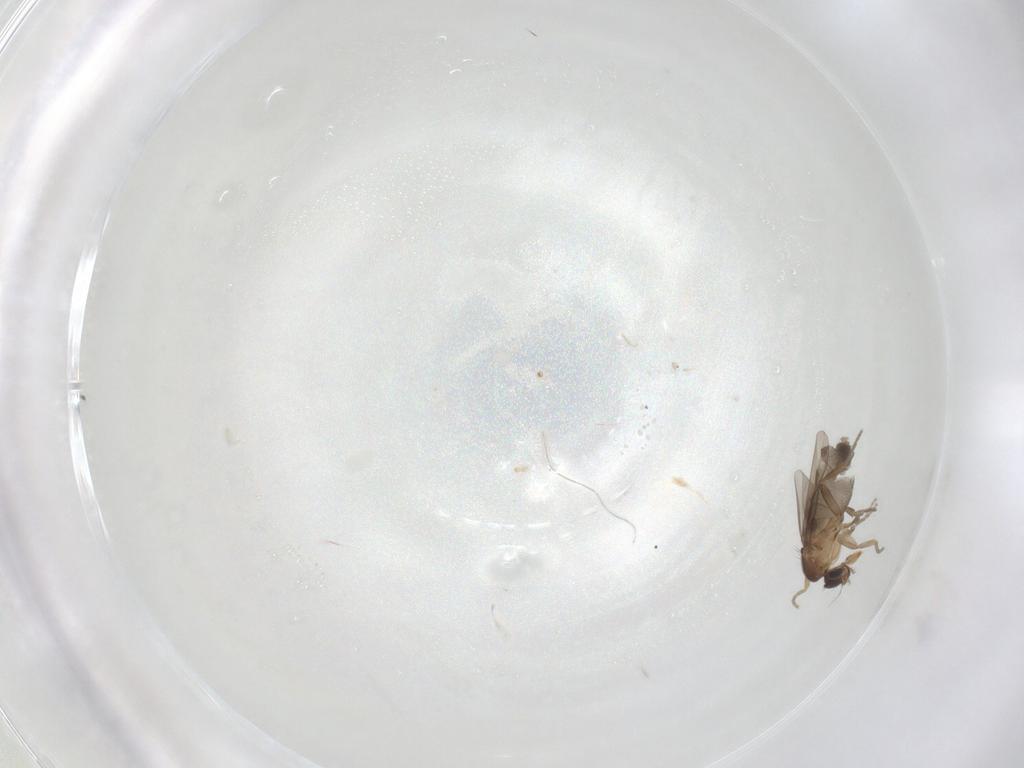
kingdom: Animalia
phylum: Arthropoda
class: Insecta
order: Diptera
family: Phoridae
